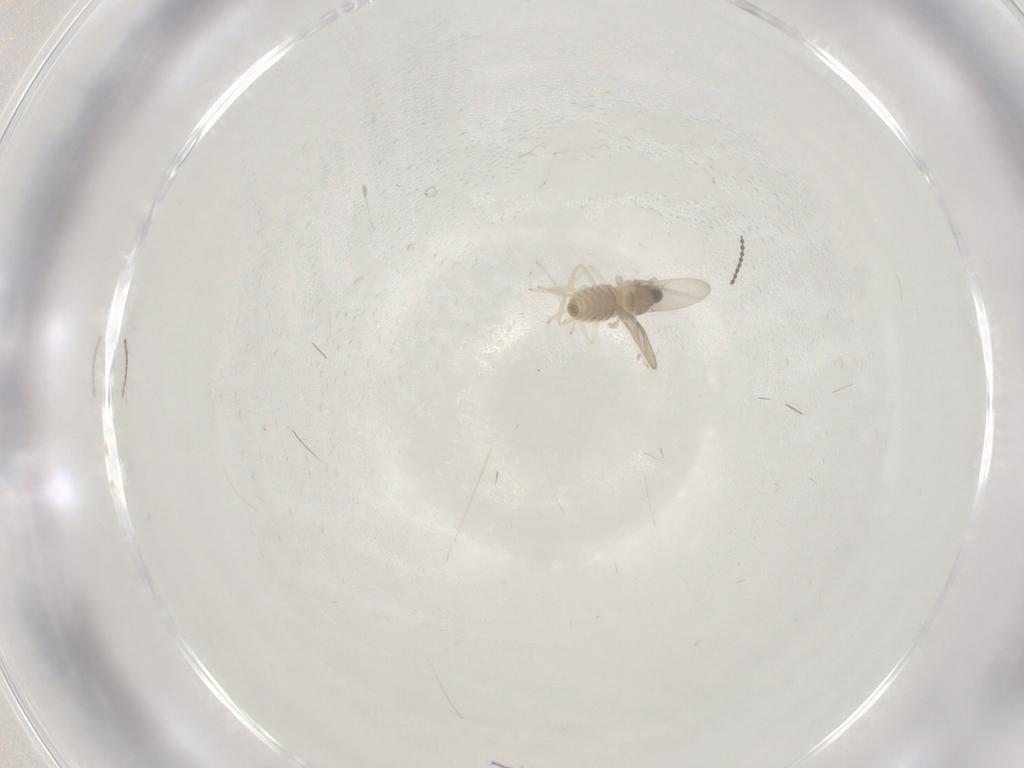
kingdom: Animalia
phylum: Arthropoda
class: Insecta
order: Diptera
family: Cecidomyiidae
